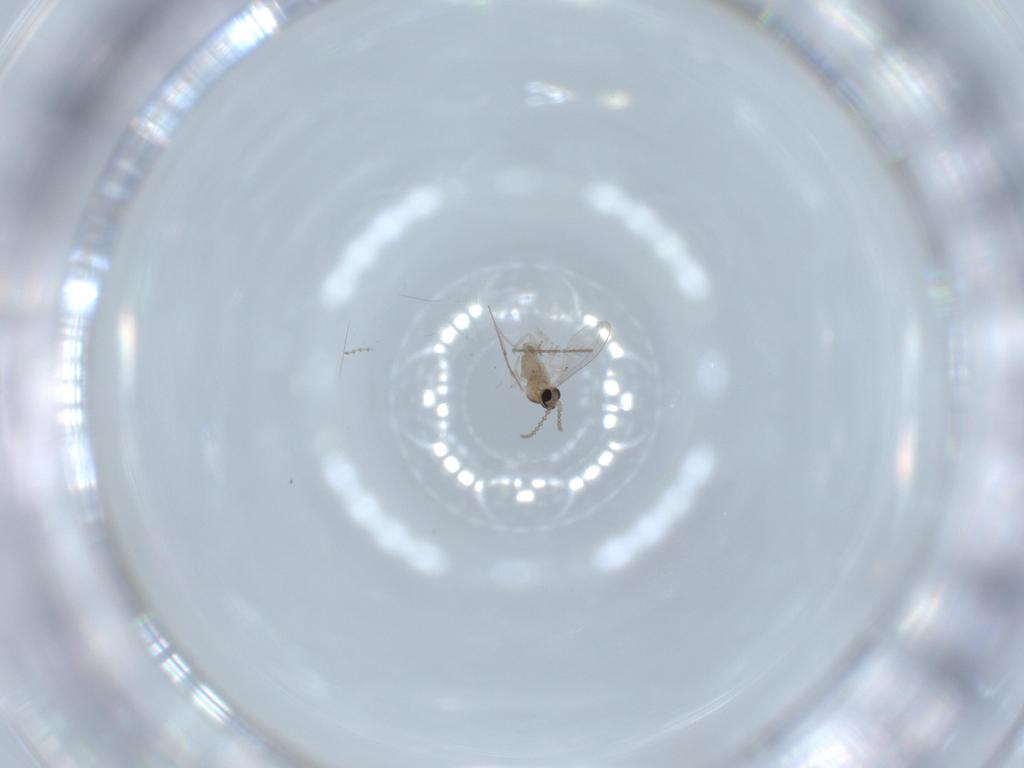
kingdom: Animalia
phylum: Arthropoda
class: Insecta
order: Diptera
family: Cecidomyiidae
